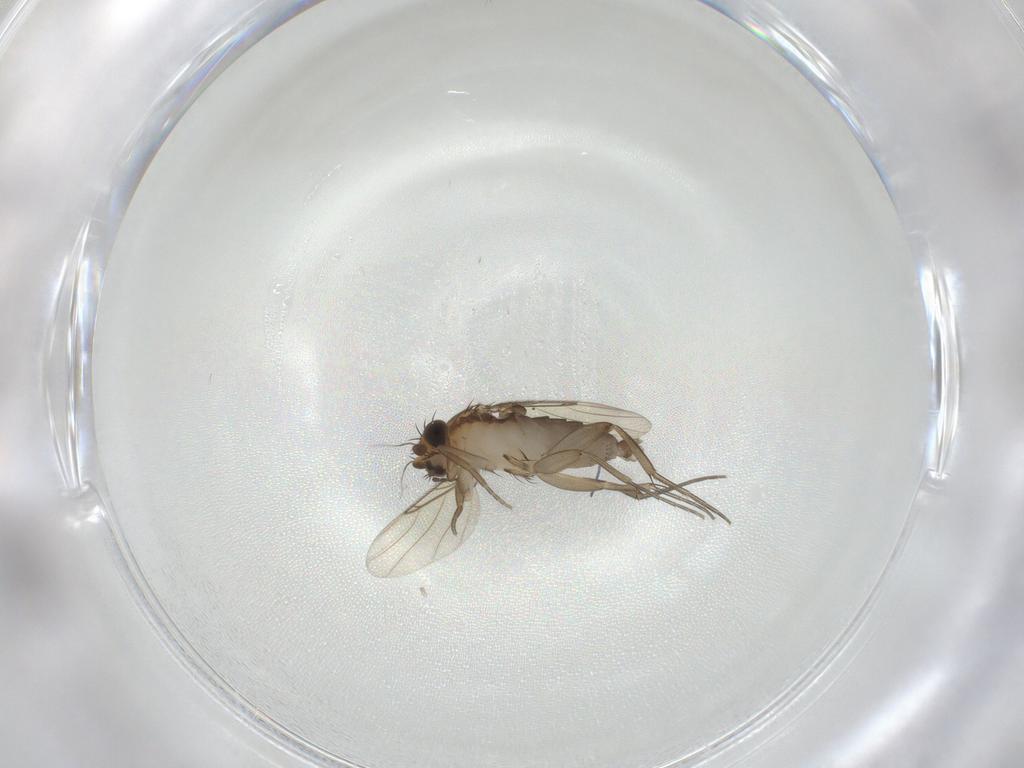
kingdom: Animalia
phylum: Arthropoda
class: Insecta
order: Diptera
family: Limoniidae
